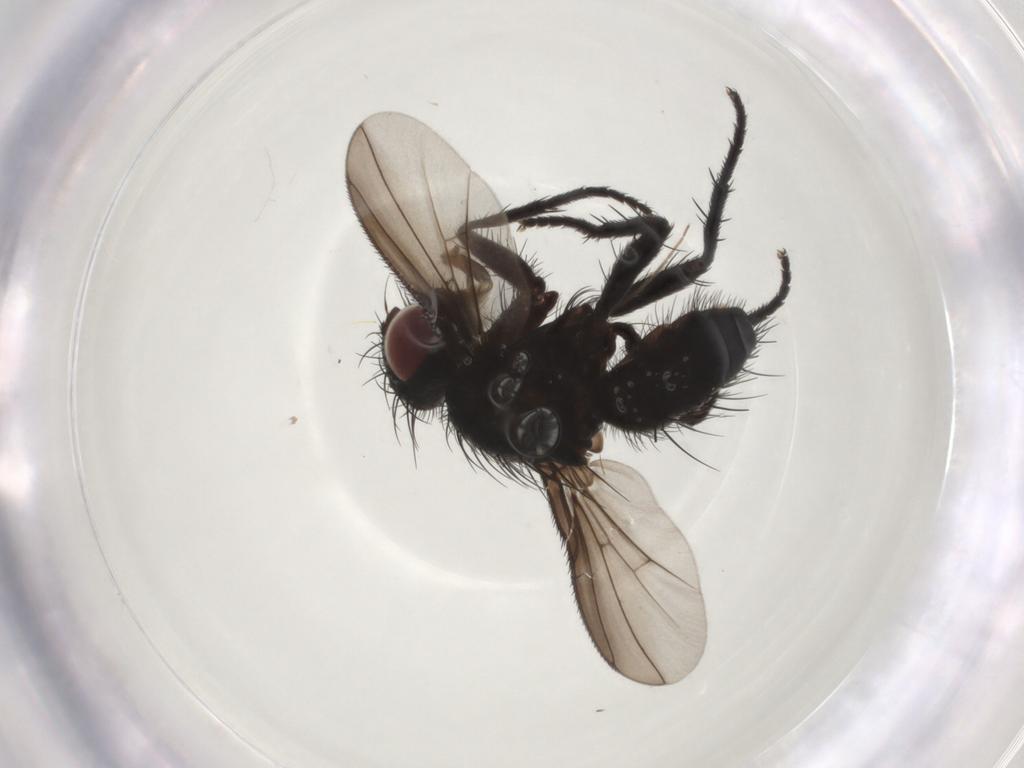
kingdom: Animalia
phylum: Arthropoda
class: Insecta
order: Diptera
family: Tachinidae
